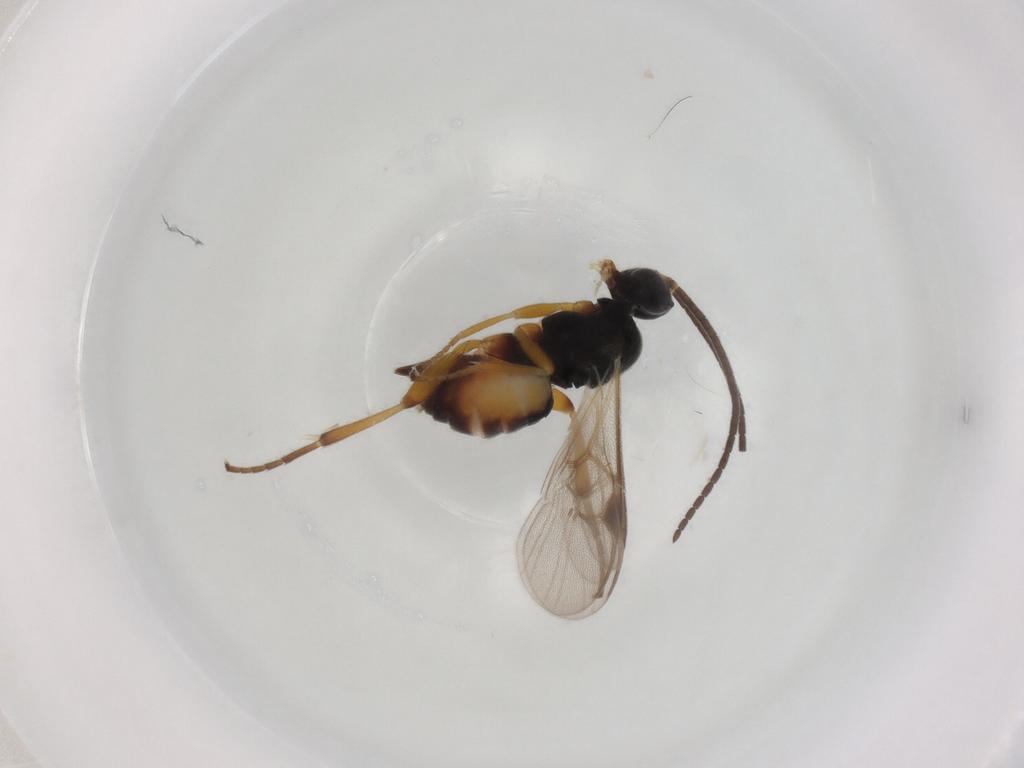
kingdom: Animalia
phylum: Arthropoda
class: Insecta
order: Hymenoptera
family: Braconidae
